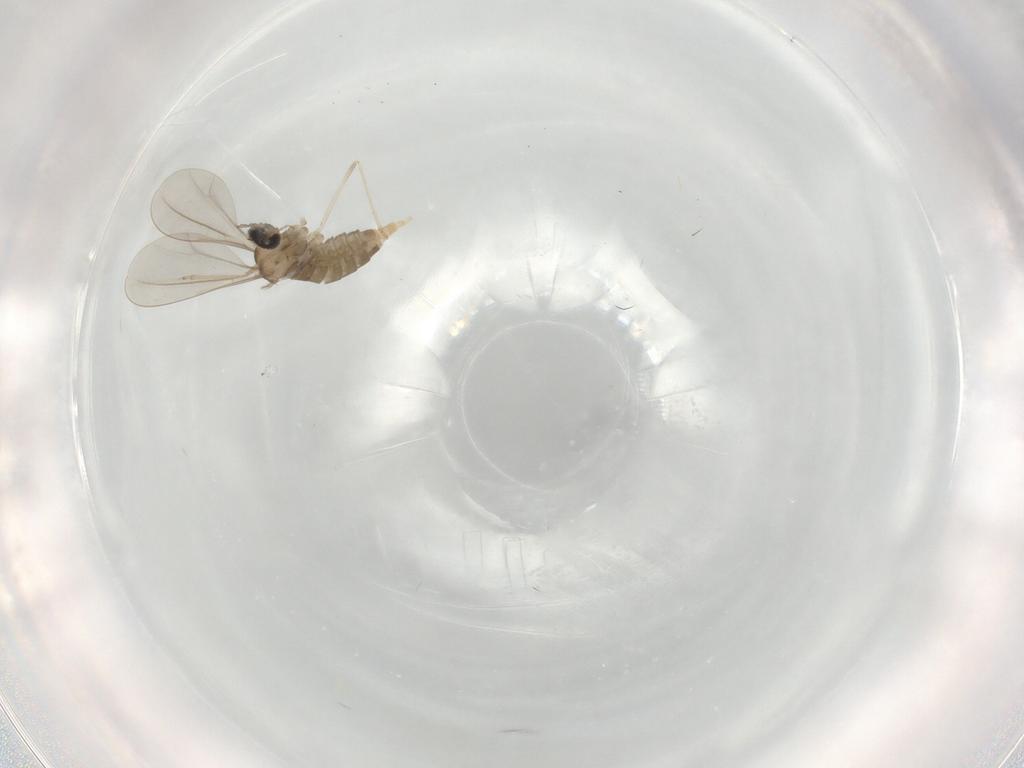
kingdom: Animalia
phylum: Arthropoda
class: Insecta
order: Diptera
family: Cecidomyiidae
